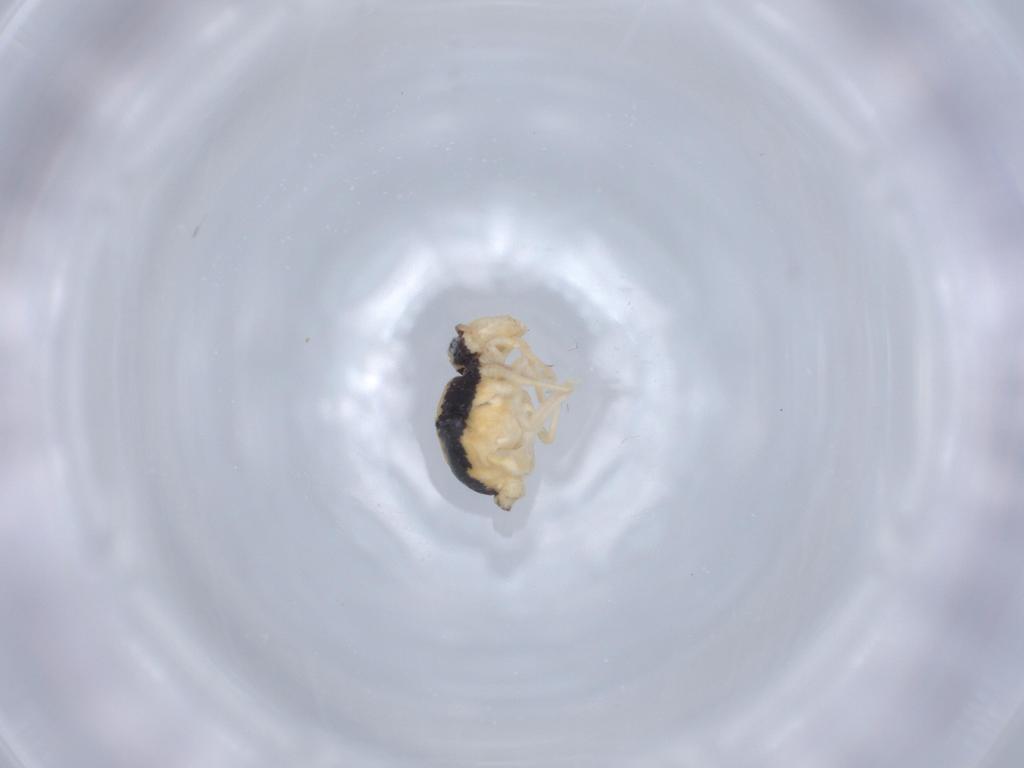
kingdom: Animalia
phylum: Arthropoda
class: Collembola
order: Symphypleona
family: Bourletiellidae
